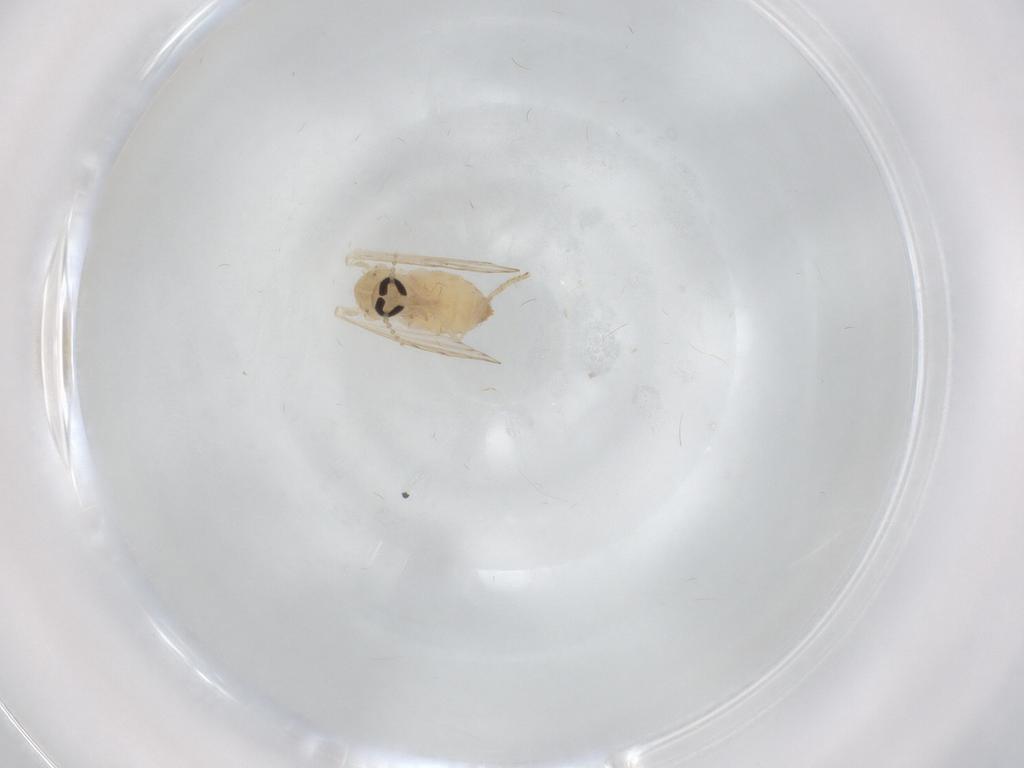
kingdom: Animalia
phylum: Arthropoda
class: Insecta
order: Diptera
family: Psychodidae
